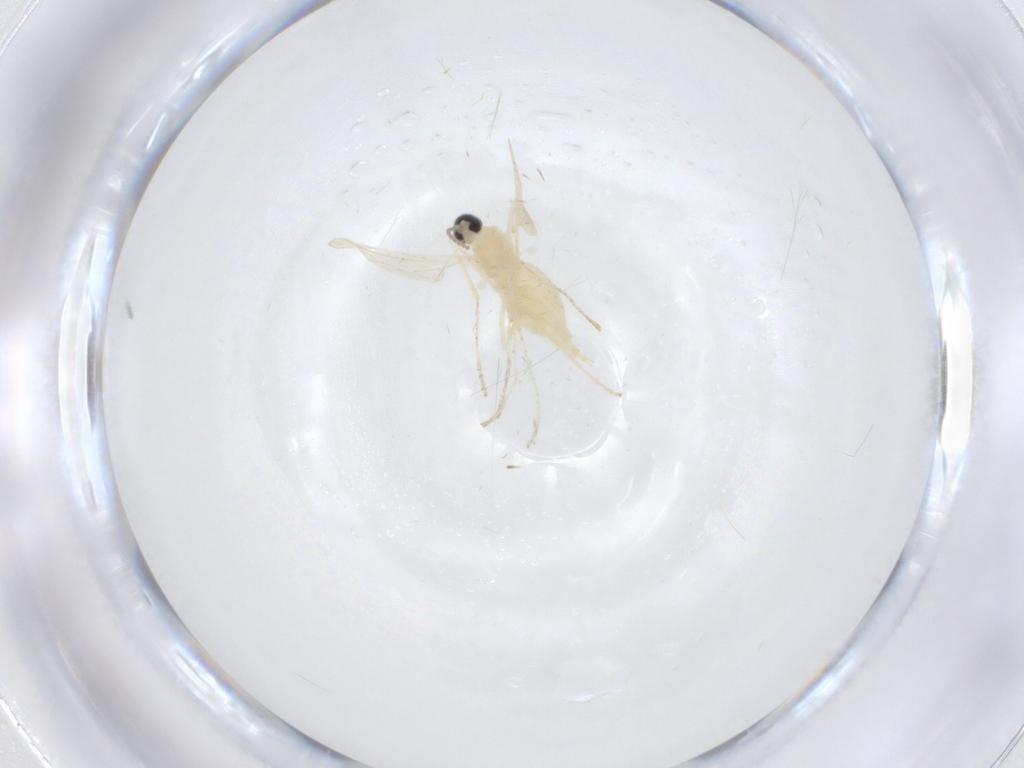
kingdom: Animalia
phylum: Arthropoda
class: Insecta
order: Diptera
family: Cecidomyiidae
